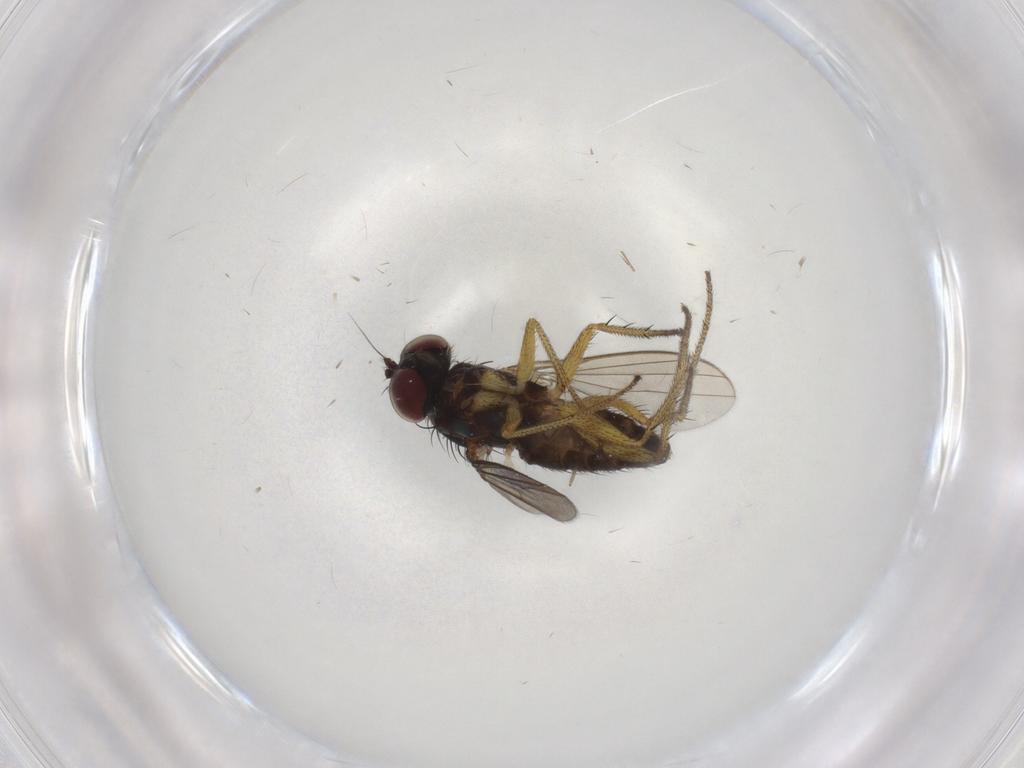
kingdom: Animalia
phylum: Arthropoda
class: Insecta
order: Diptera
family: Dolichopodidae
